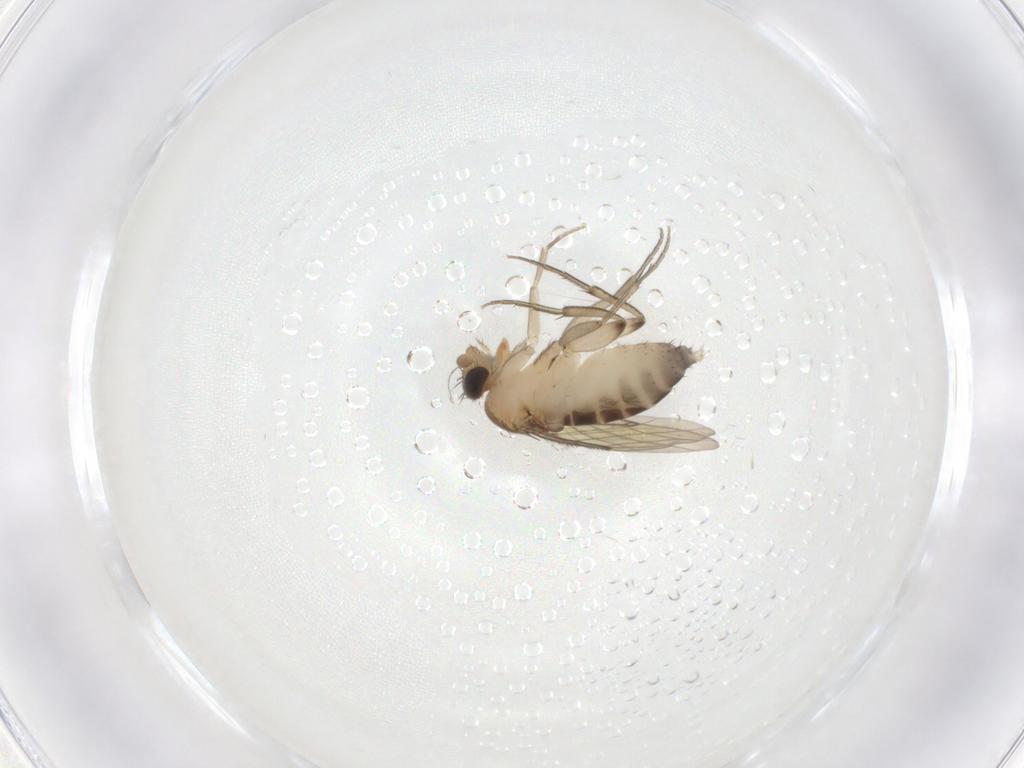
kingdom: Animalia
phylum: Arthropoda
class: Insecta
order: Diptera
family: Phoridae
